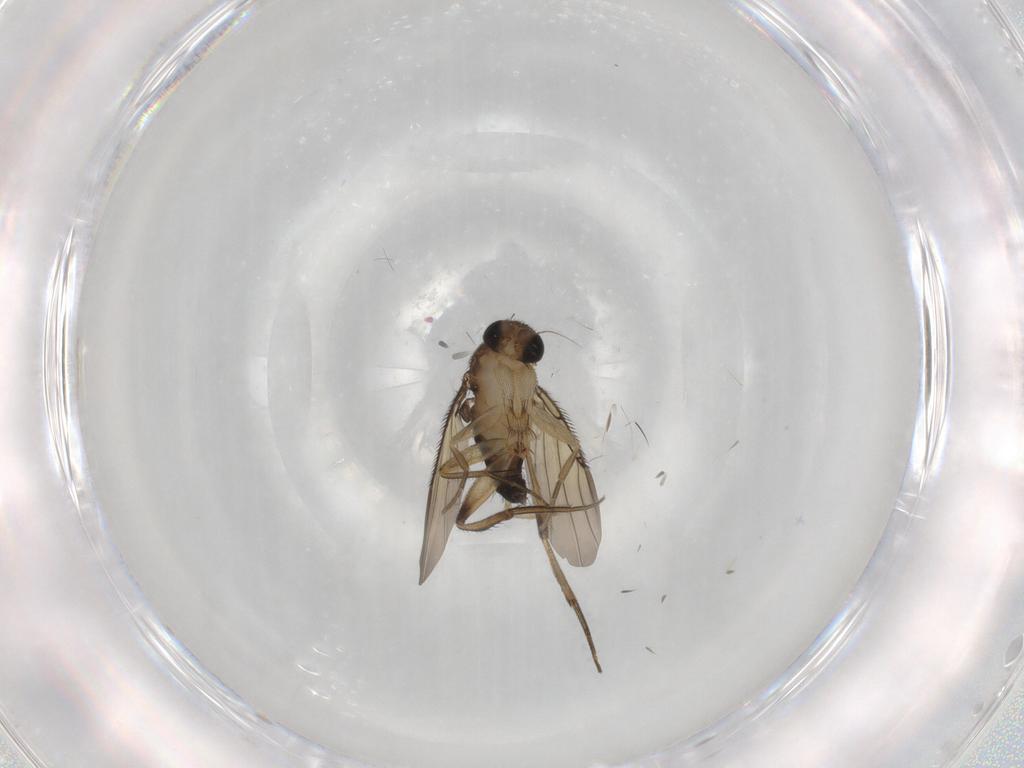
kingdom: Animalia
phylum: Arthropoda
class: Insecta
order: Diptera
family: Phoridae
